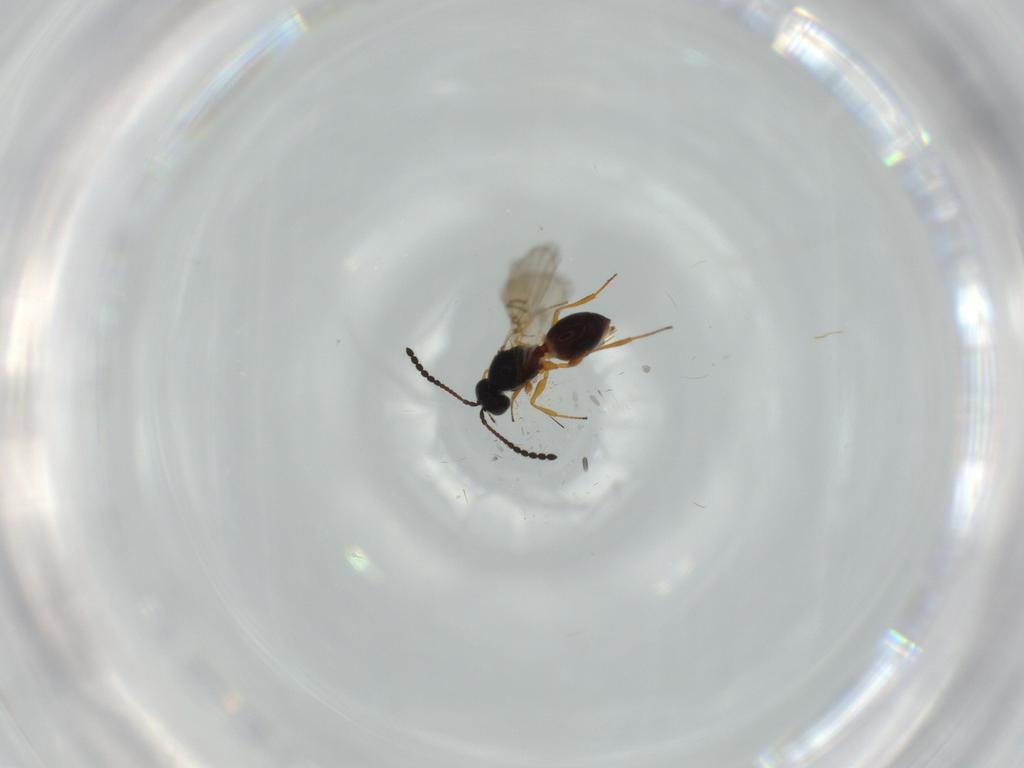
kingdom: Animalia
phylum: Arthropoda
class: Insecta
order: Hymenoptera
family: Figitidae
